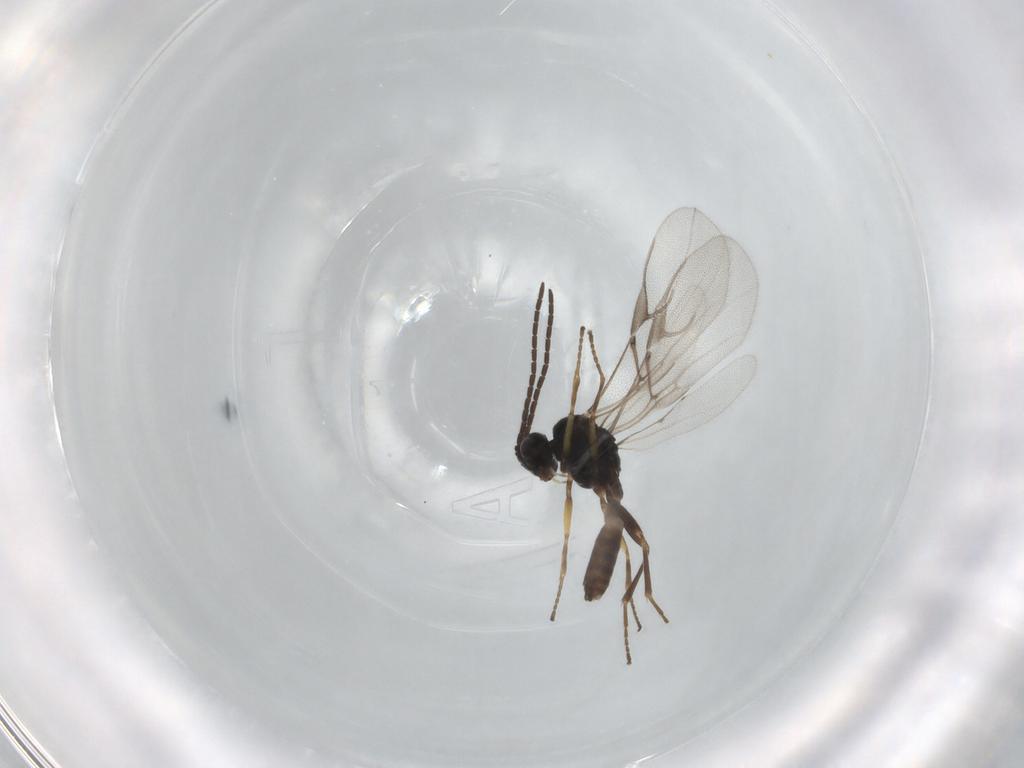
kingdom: Animalia
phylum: Arthropoda
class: Insecta
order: Hymenoptera
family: Braconidae
